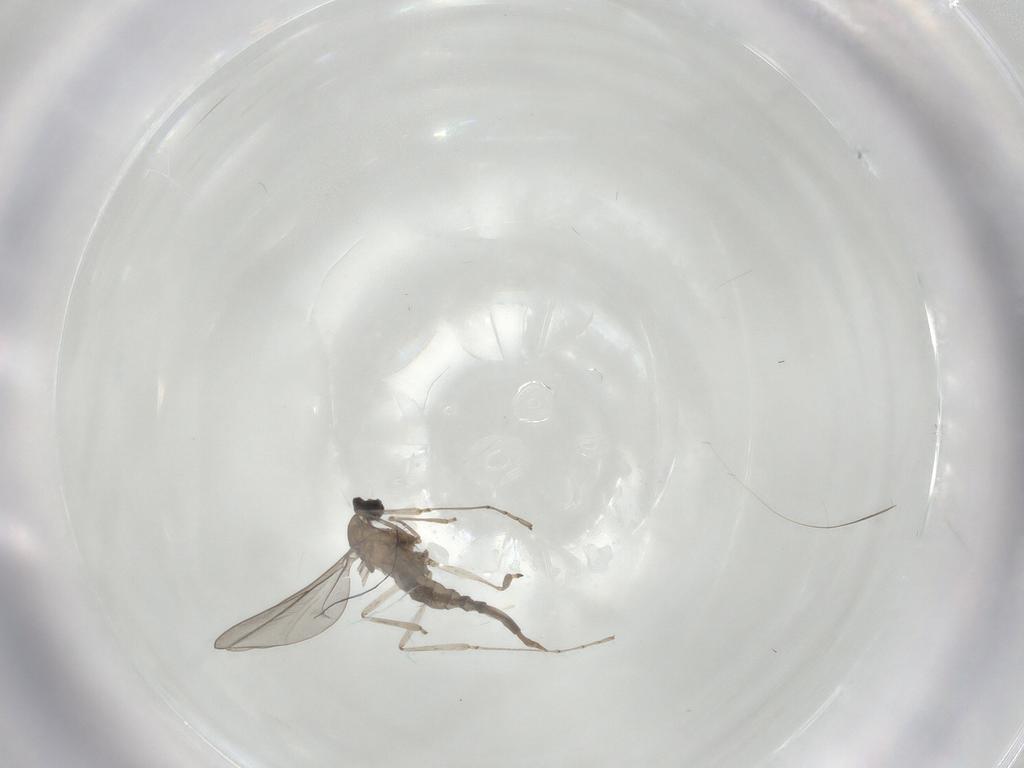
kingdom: Animalia
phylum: Arthropoda
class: Insecta
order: Diptera
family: Cecidomyiidae
